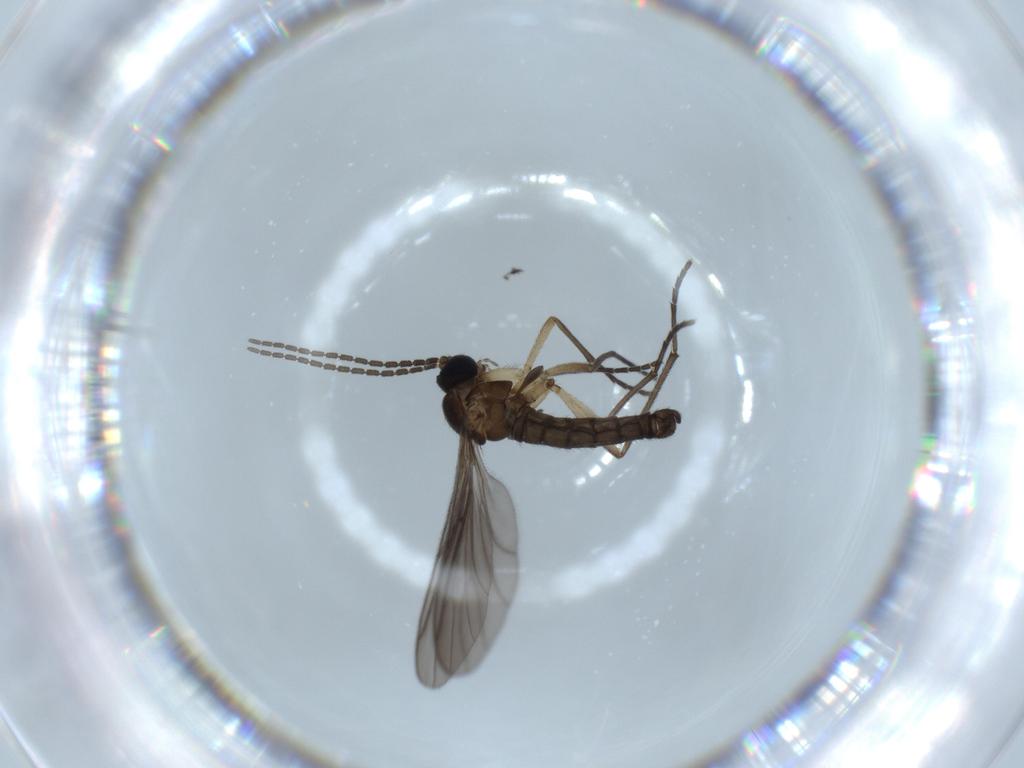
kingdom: Animalia
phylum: Arthropoda
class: Insecta
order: Diptera
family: Sciaridae
